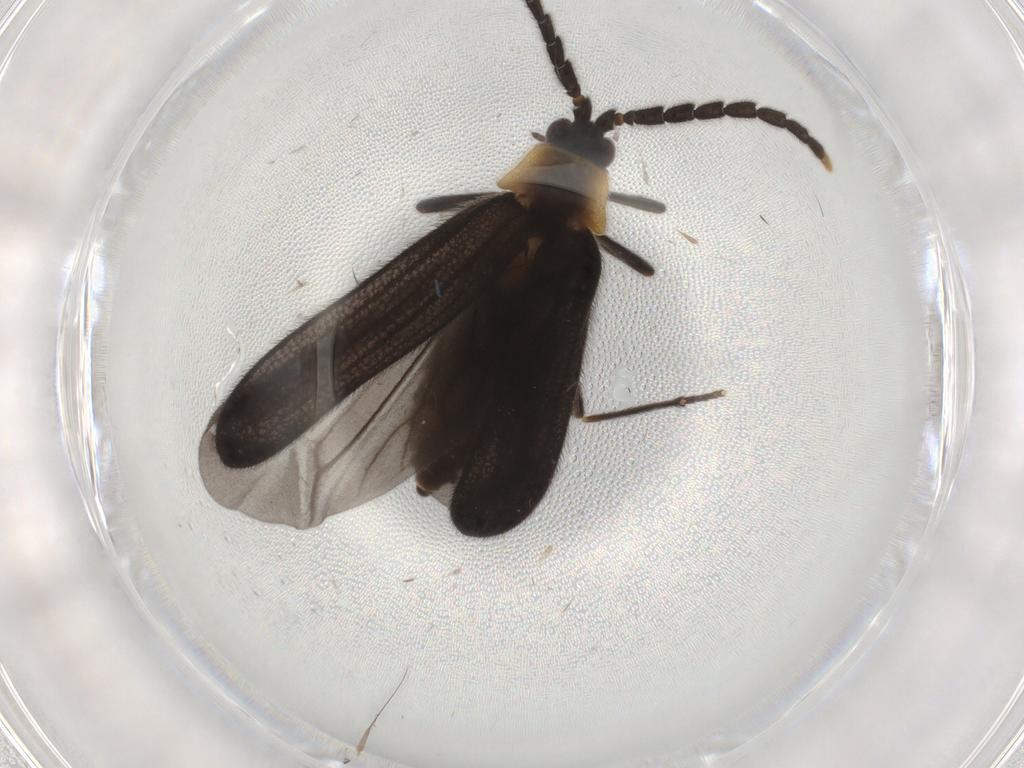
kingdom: Animalia
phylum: Arthropoda
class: Insecta
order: Coleoptera
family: Lycidae
